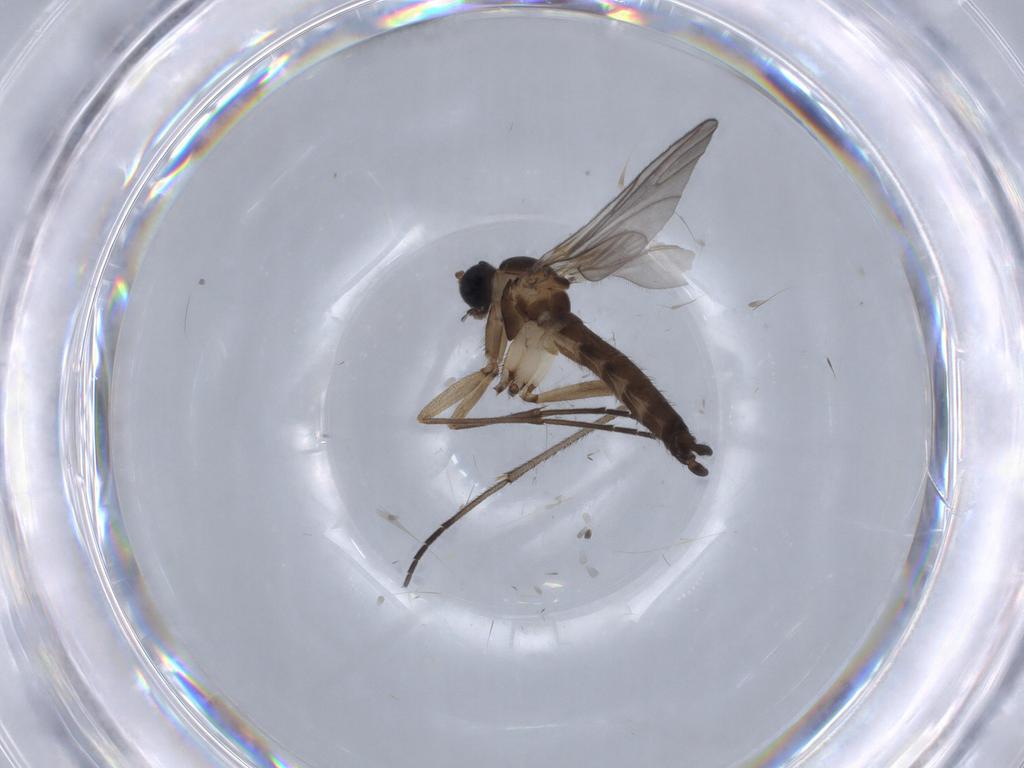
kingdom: Animalia
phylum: Arthropoda
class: Insecta
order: Diptera
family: Sciaridae
